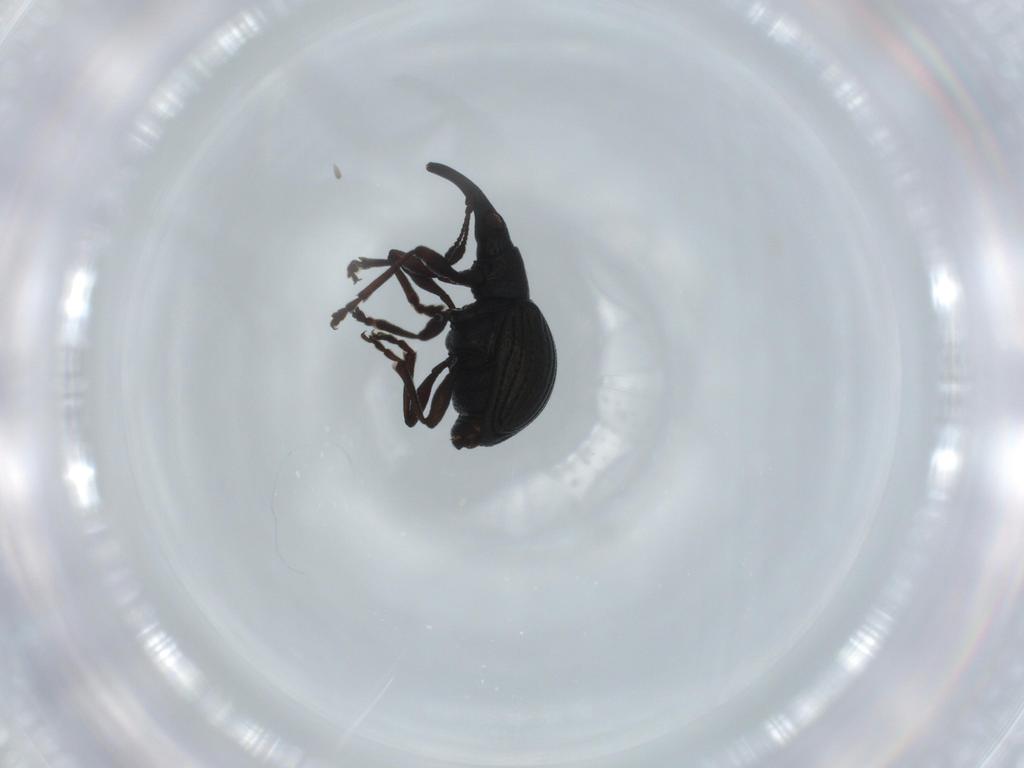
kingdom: Animalia
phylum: Arthropoda
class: Insecta
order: Coleoptera
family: Brentidae
